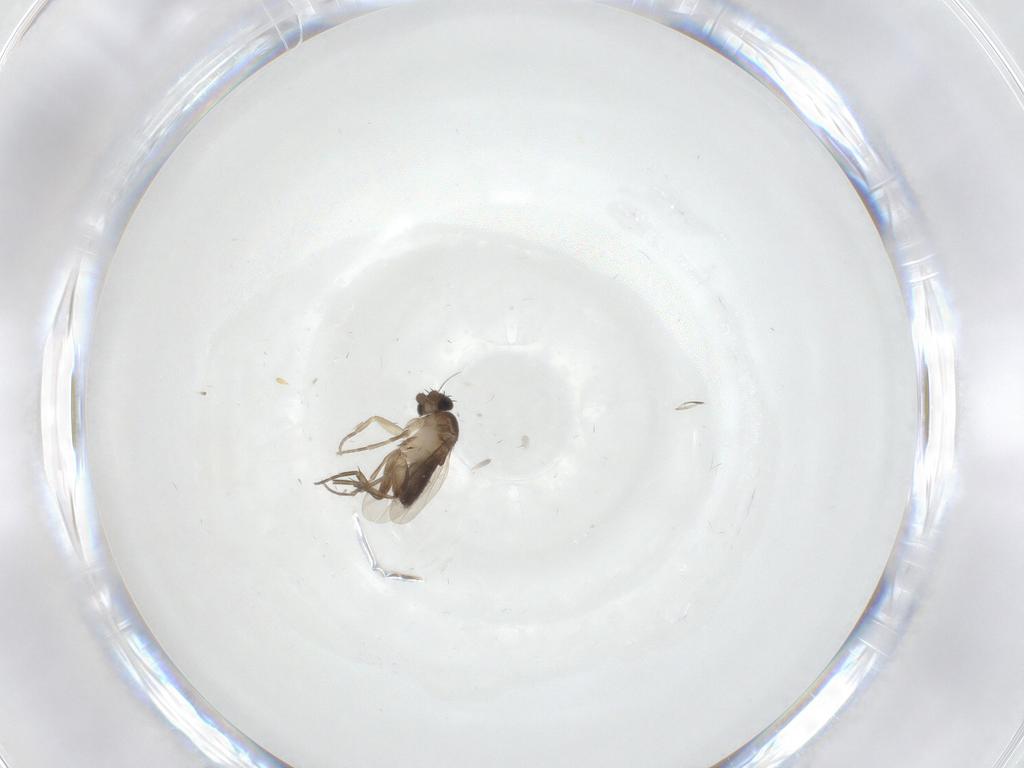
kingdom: Animalia
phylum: Arthropoda
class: Insecta
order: Diptera
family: Phoridae
